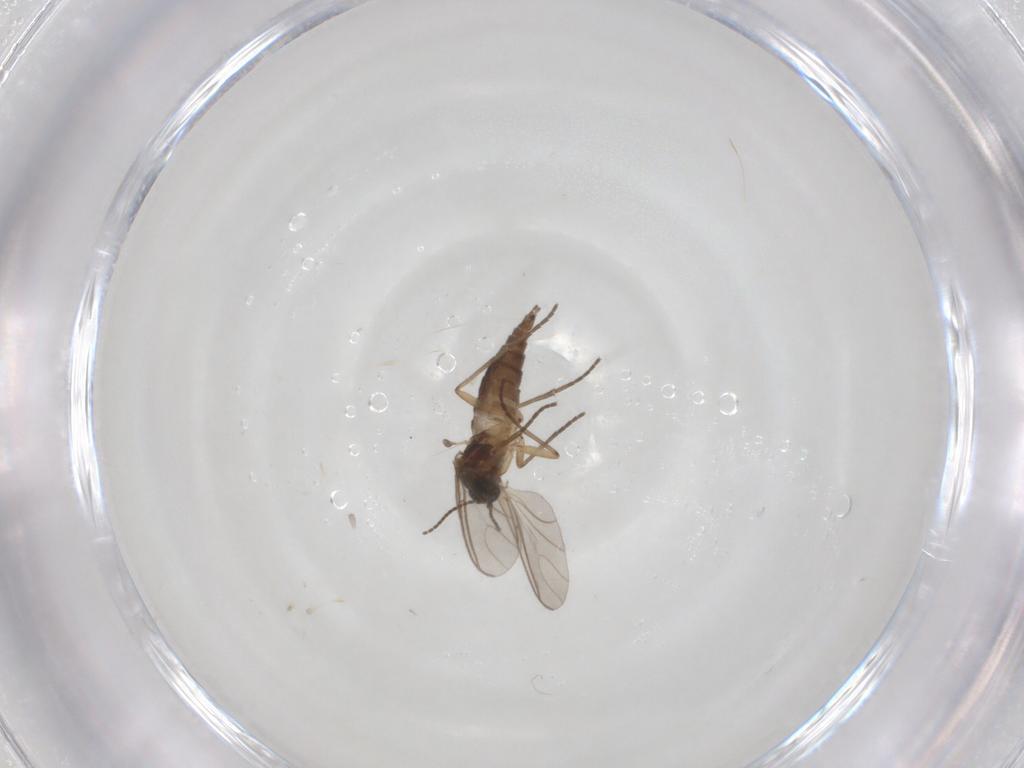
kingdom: Animalia
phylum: Arthropoda
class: Insecta
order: Diptera
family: Sciaridae
